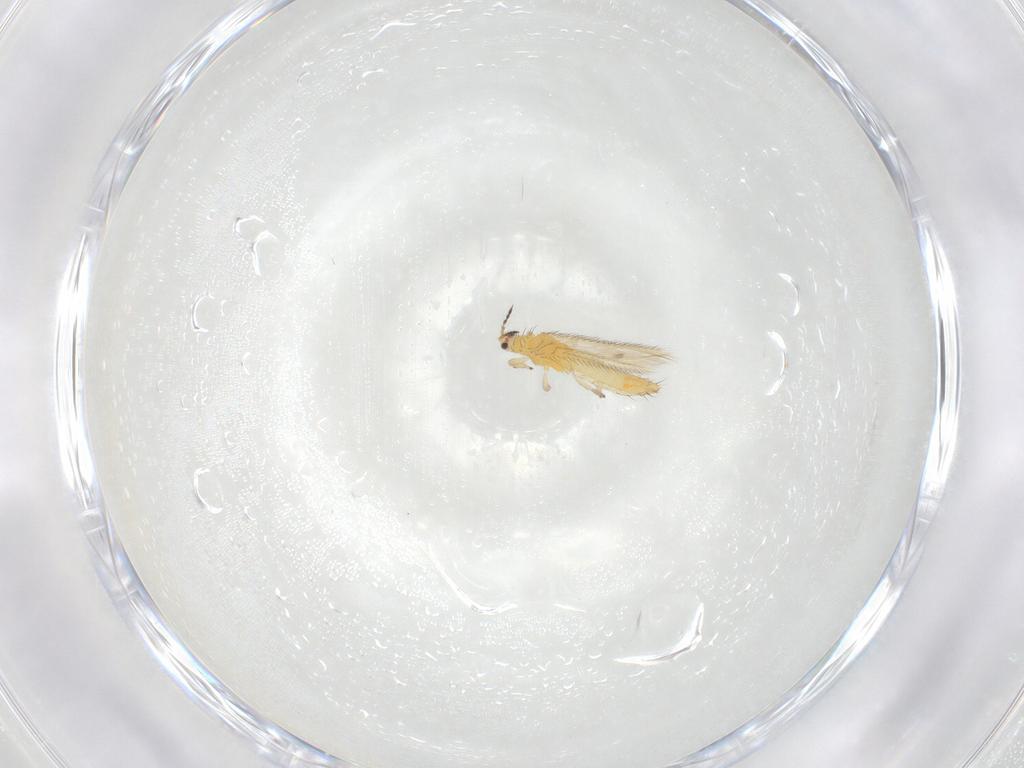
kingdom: Animalia
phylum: Arthropoda
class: Insecta
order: Thysanoptera
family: Thripidae
